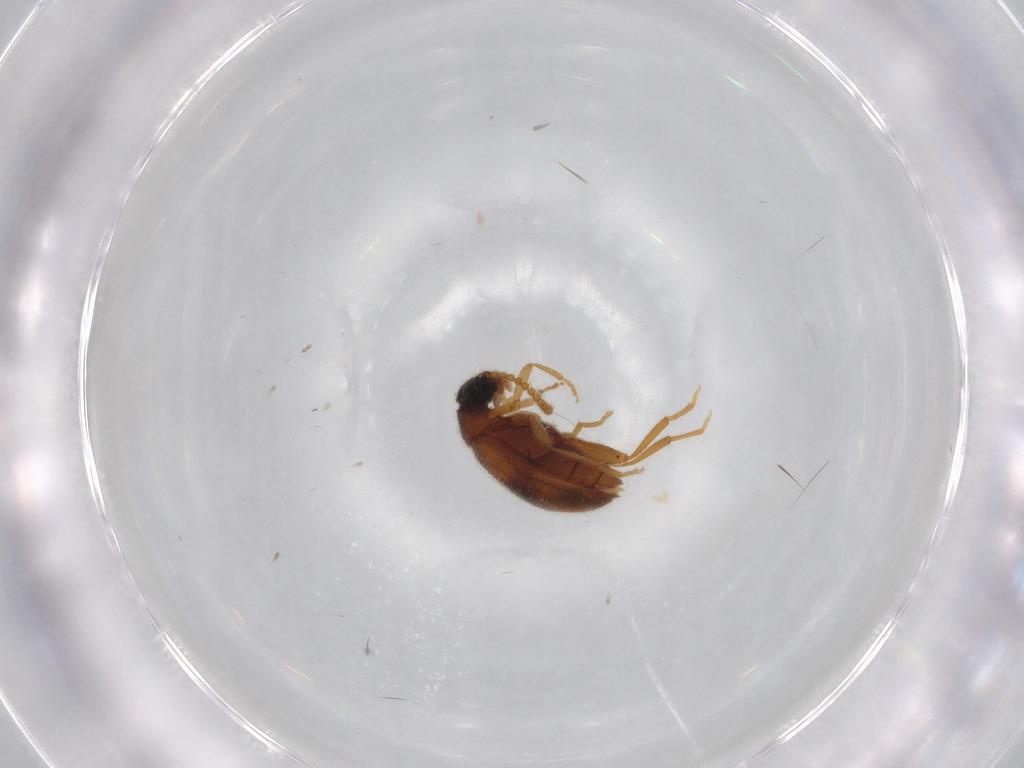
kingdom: Animalia
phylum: Arthropoda
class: Insecta
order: Coleoptera
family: Aderidae
